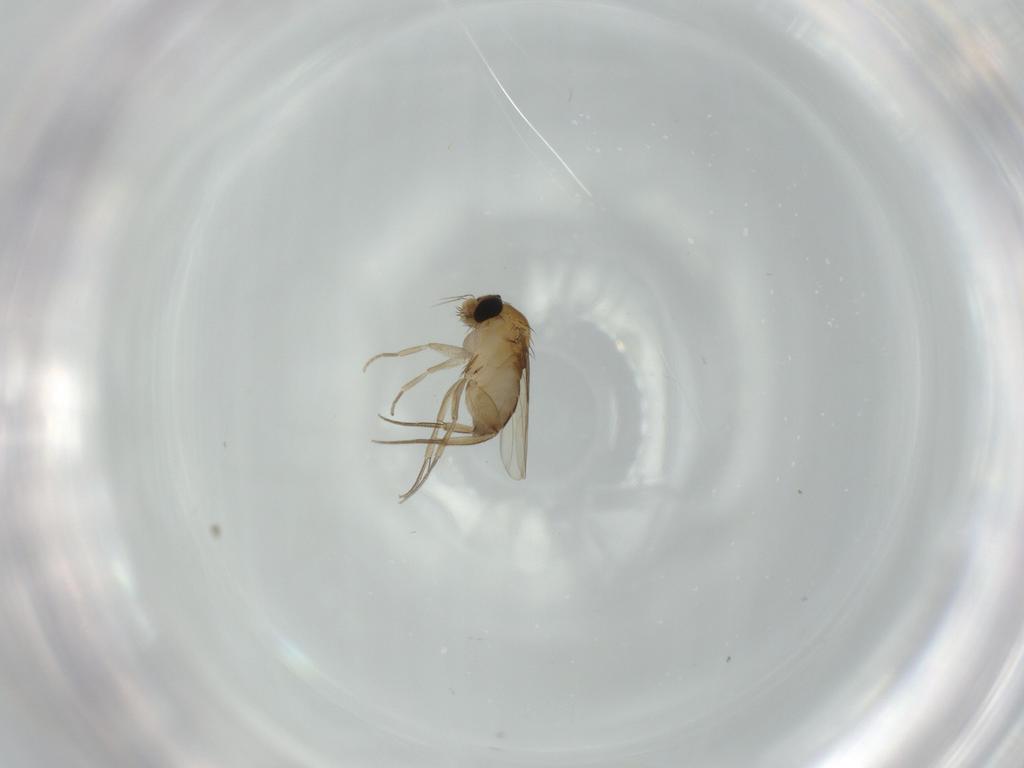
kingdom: Animalia
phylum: Arthropoda
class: Insecta
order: Diptera
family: Phoridae
